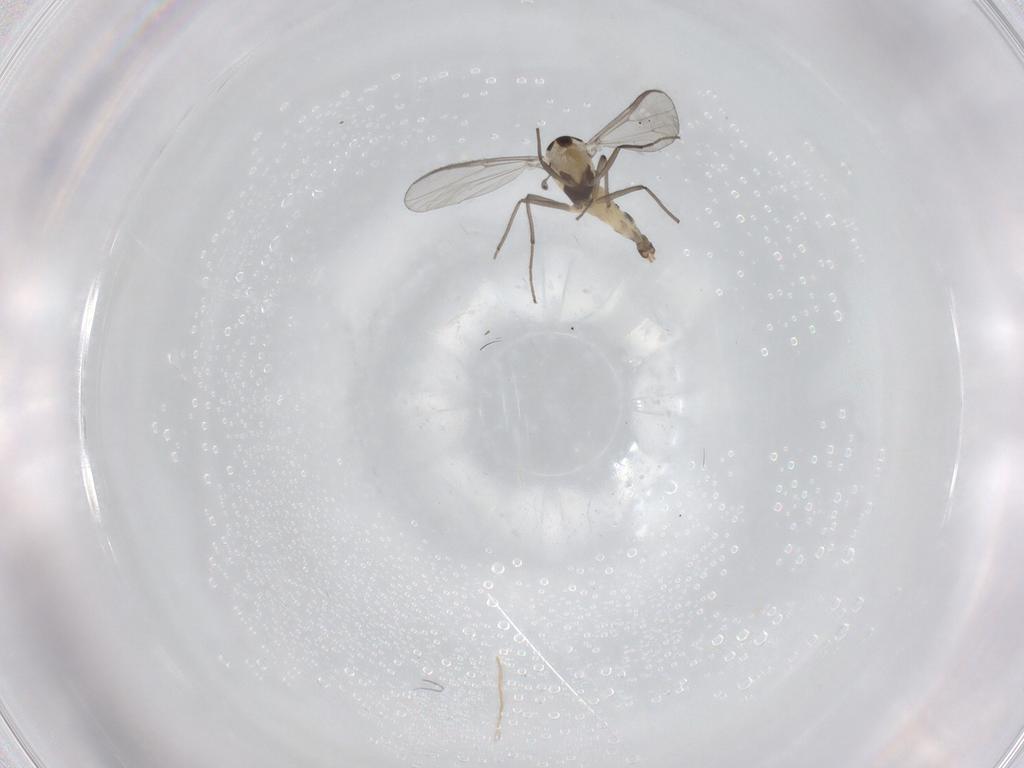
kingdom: Animalia
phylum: Arthropoda
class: Insecta
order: Diptera
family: Chironomidae
